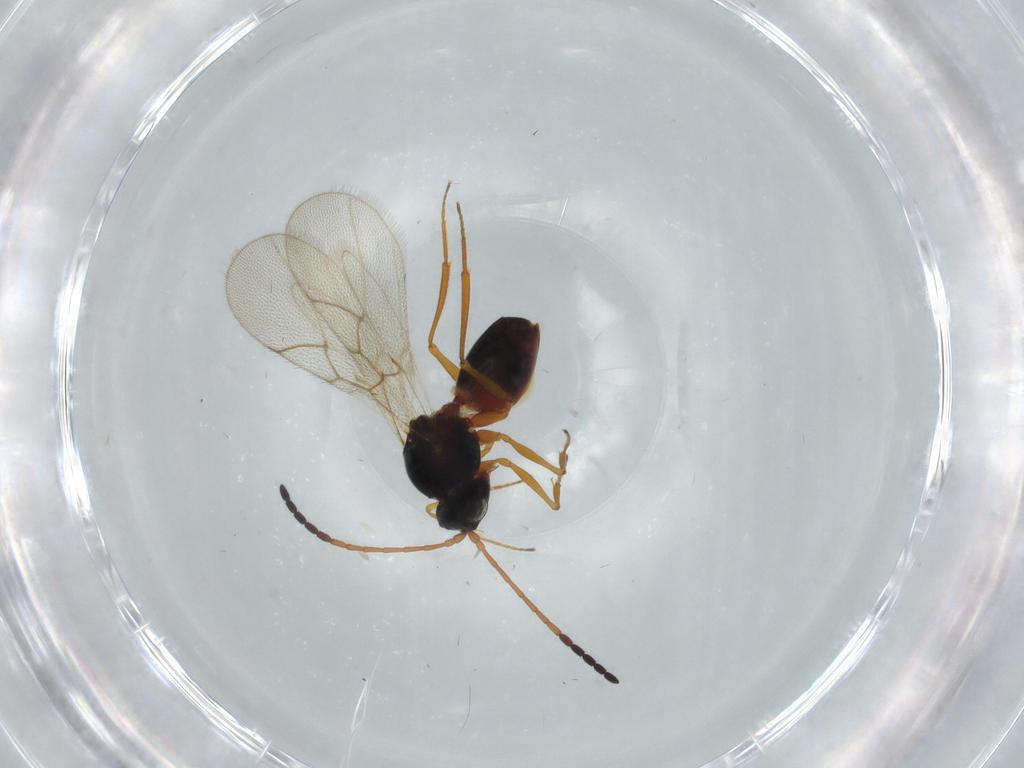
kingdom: Animalia
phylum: Arthropoda
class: Insecta
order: Hymenoptera
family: Figitidae
